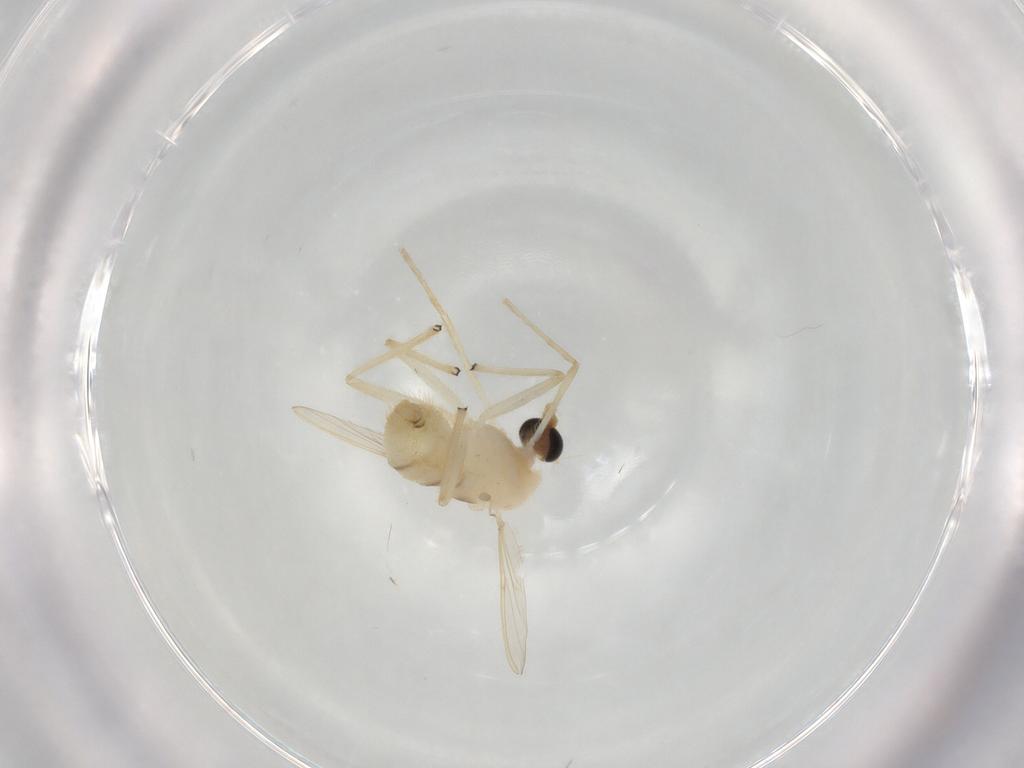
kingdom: Animalia
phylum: Arthropoda
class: Insecta
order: Diptera
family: Chironomidae
